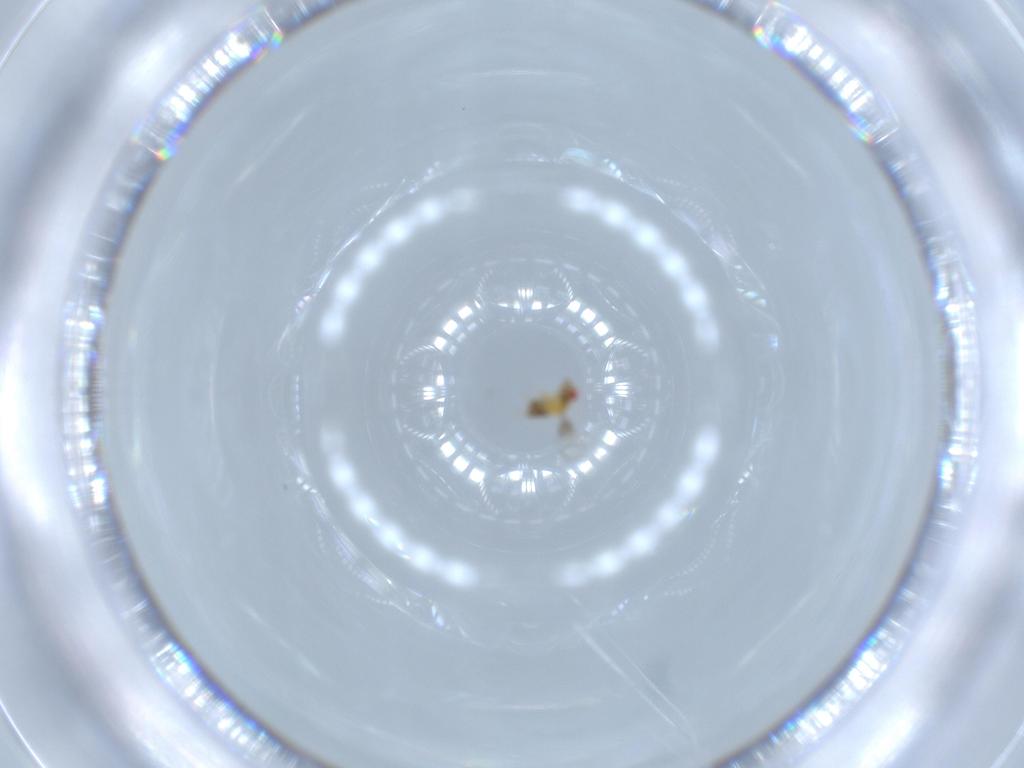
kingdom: Animalia
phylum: Arthropoda
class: Insecta
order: Hymenoptera
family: Trichogrammatidae
